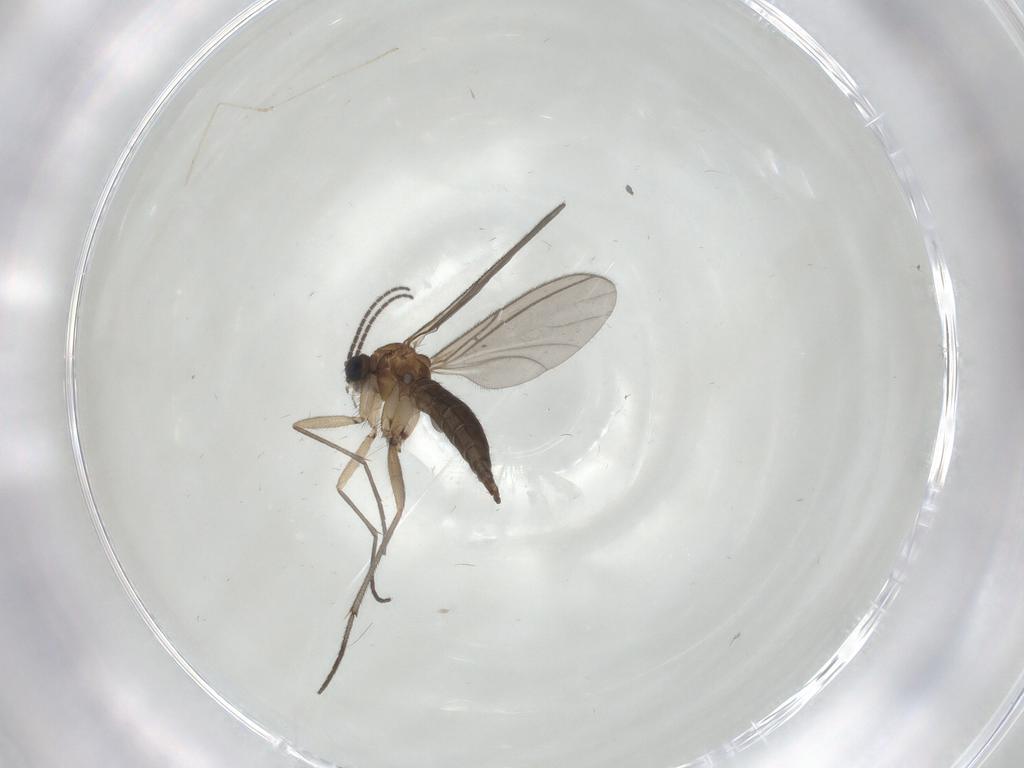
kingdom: Animalia
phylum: Arthropoda
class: Insecta
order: Diptera
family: Sciaridae
